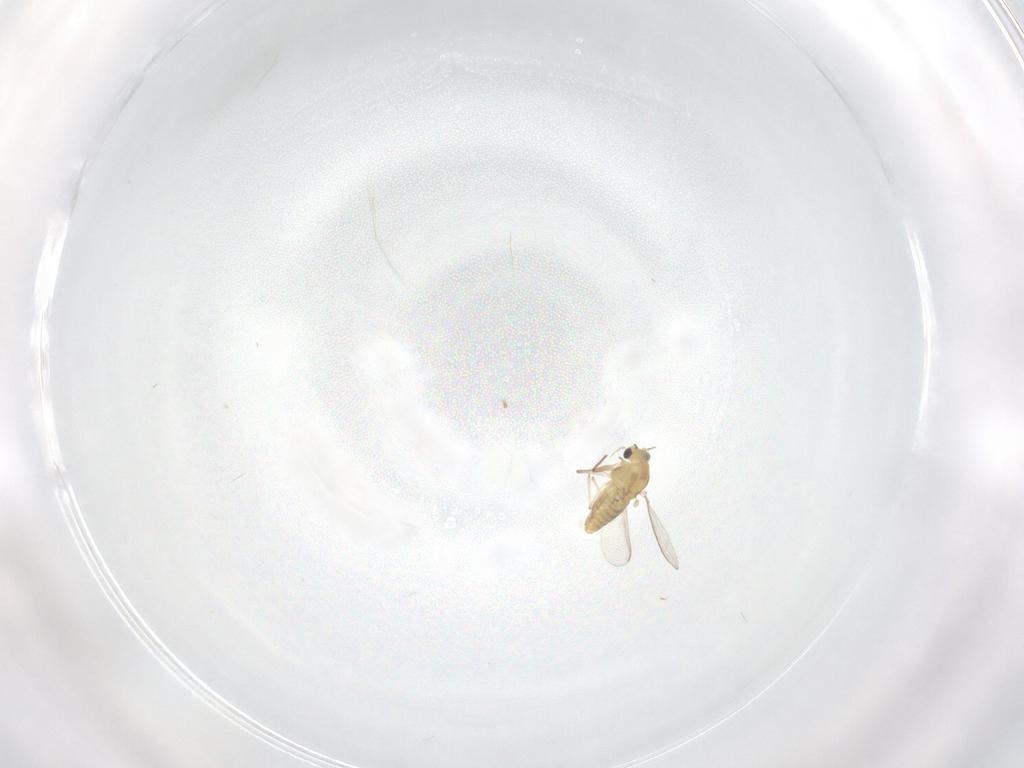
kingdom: Animalia
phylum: Arthropoda
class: Insecta
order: Diptera
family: Chironomidae
